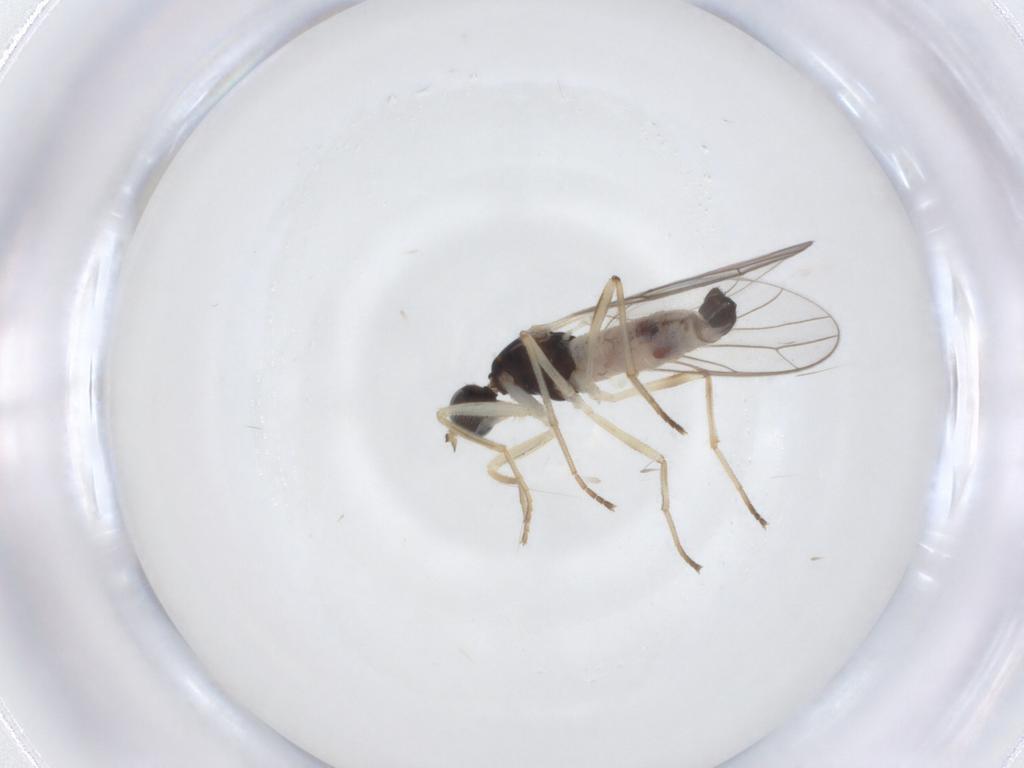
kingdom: Animalia
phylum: Arthropoda
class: Insecta
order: Diptera
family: Empididae
